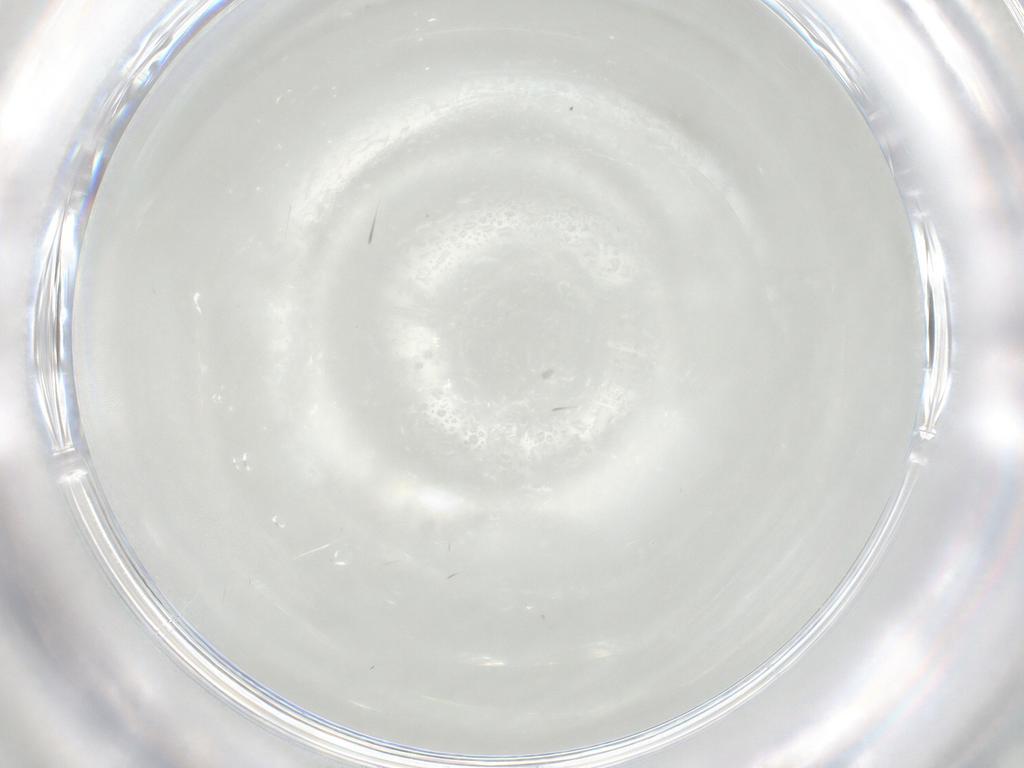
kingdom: Animalia
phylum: Arthropoda
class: Insecta
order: Diptera
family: Cecidomyiidae
